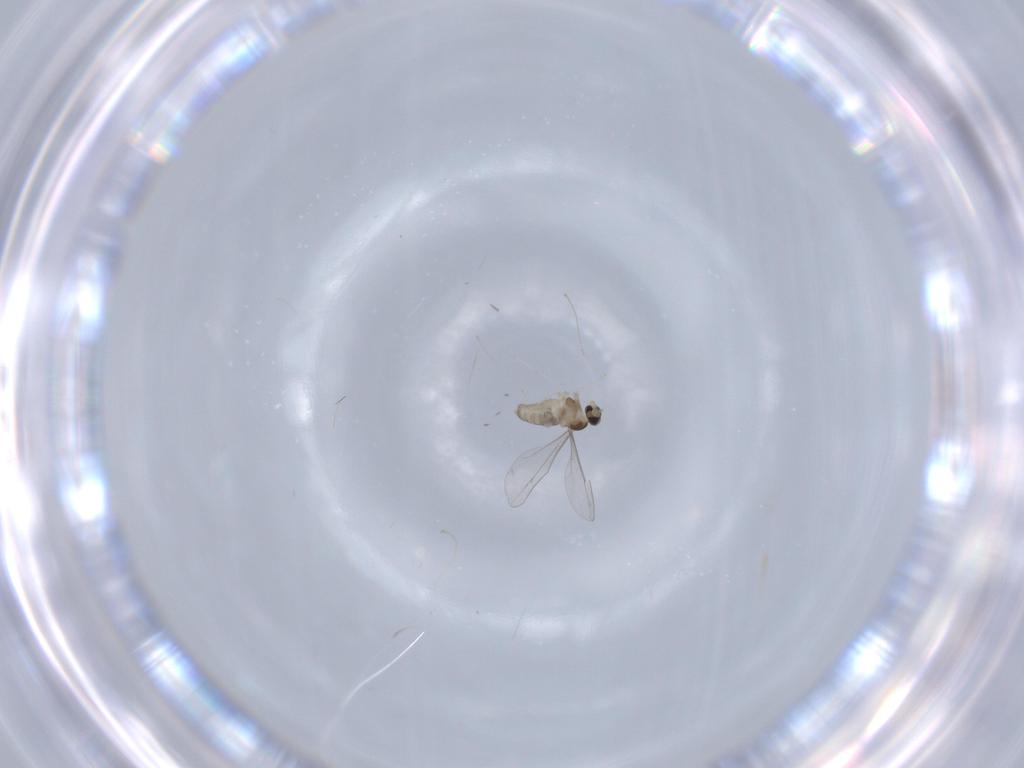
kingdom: Animalia
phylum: Arthropoda
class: Insecta
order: Diptera
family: Cecidomyiidae
